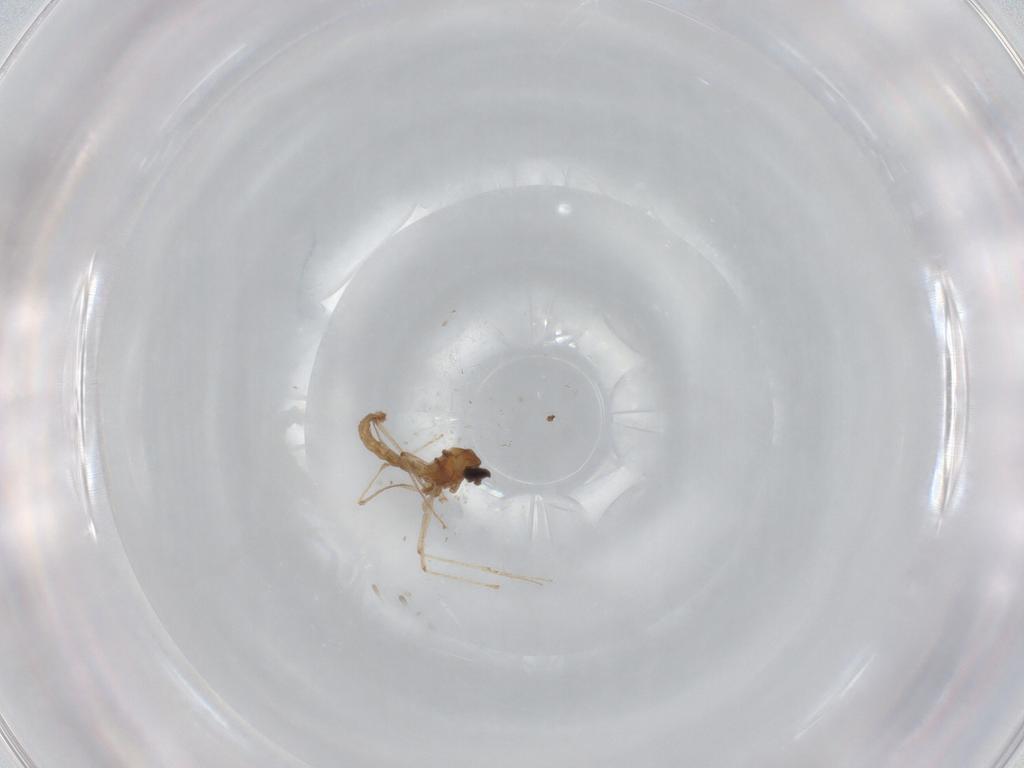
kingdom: Animalia
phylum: Arthropoda
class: Insecta
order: Diptera
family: Cecidomyiidae
